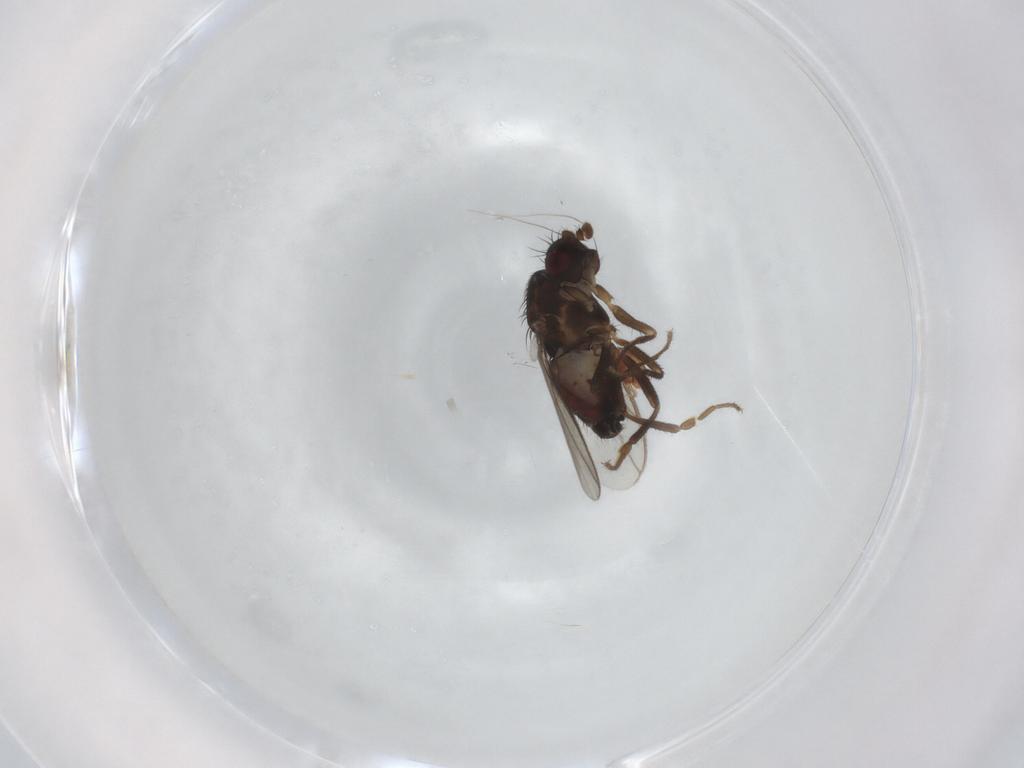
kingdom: Animalia
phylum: Arthropoda
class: Insecta
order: Diptera
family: Sphaeroceridae
